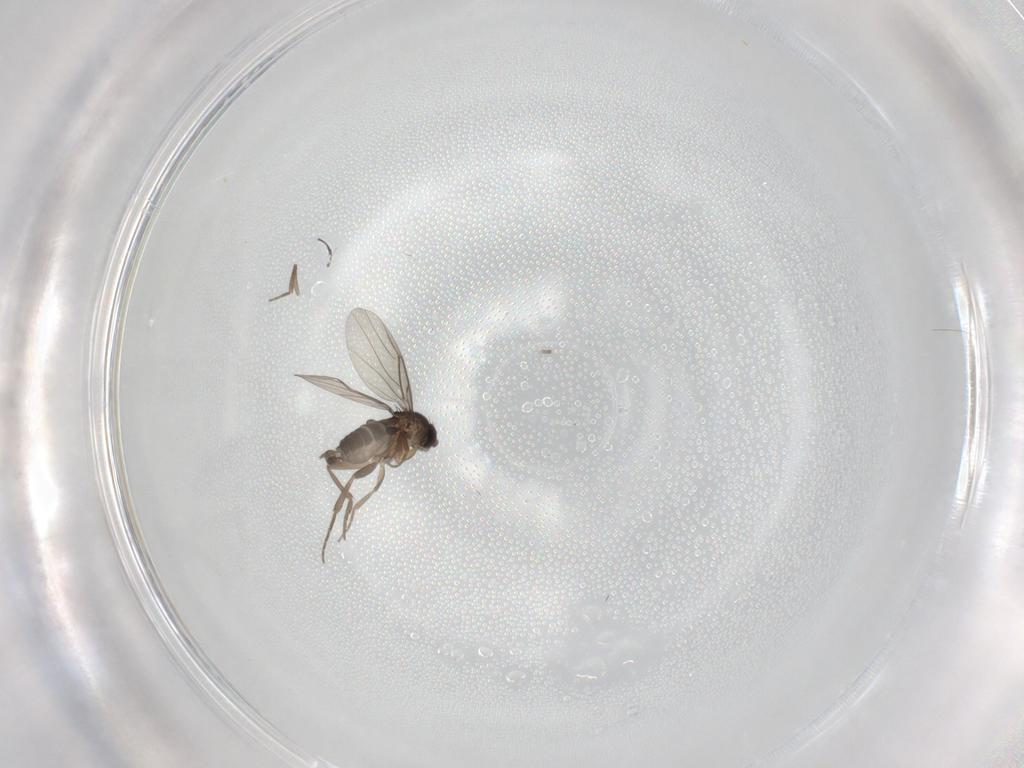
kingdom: Animalia
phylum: Arthropoda
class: Insecta
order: Diptera
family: Phoridae
